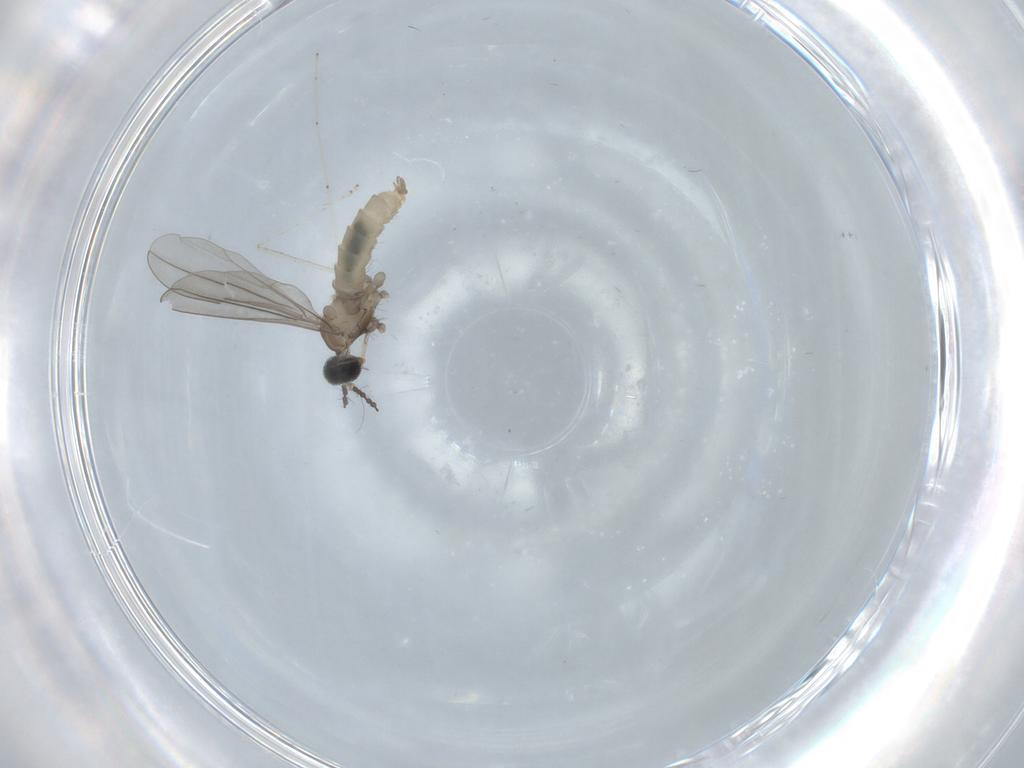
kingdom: Animalia
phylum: Arthropoda
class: Insecta
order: Diptera
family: Cecidomyiidae
